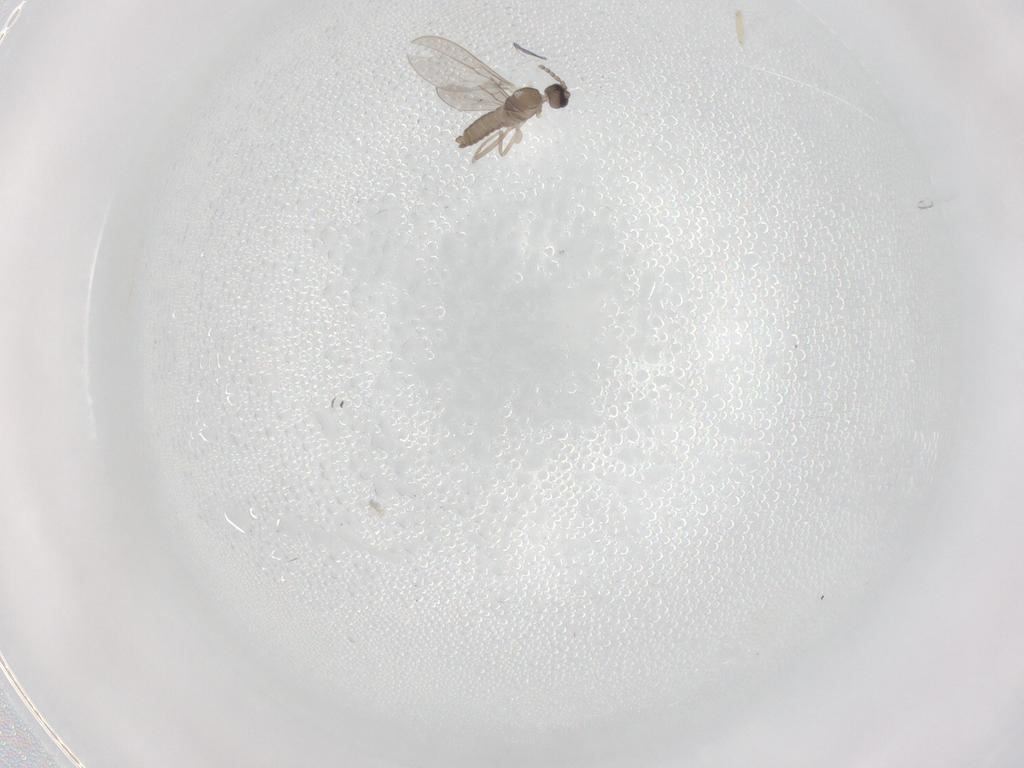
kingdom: Animalia
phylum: Arthropoda
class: Insecta
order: Diptera
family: Cecidomyiidae
